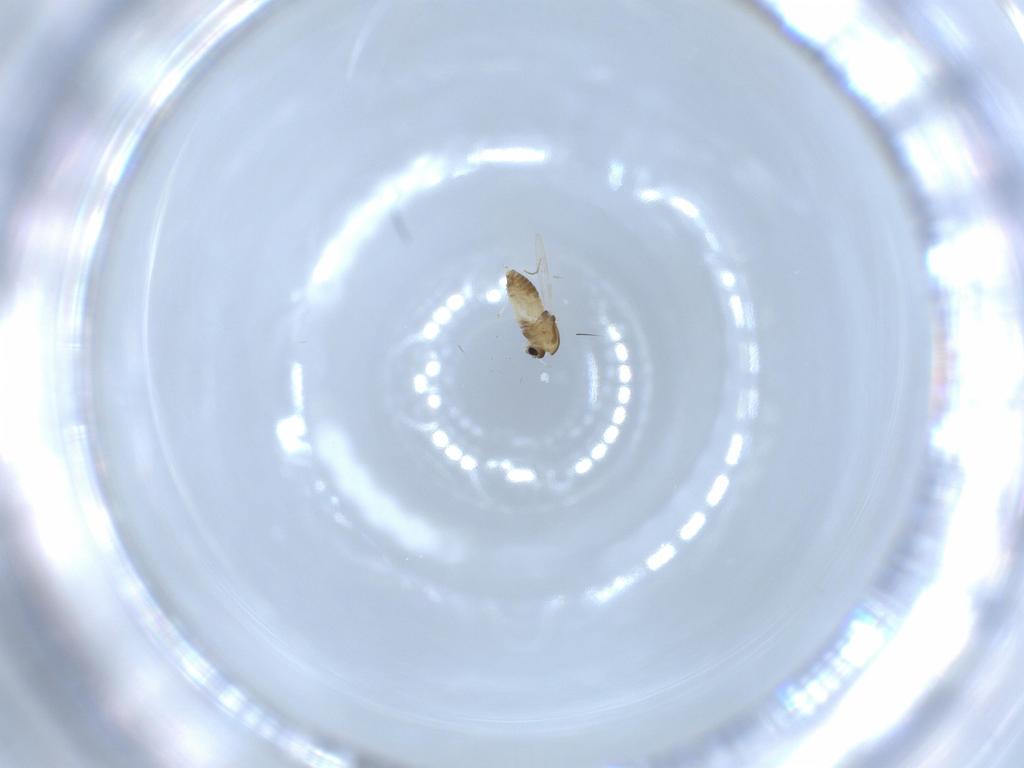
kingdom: Animalia
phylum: Arthropoda
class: Insecta
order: Diptera
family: Chironomidae
